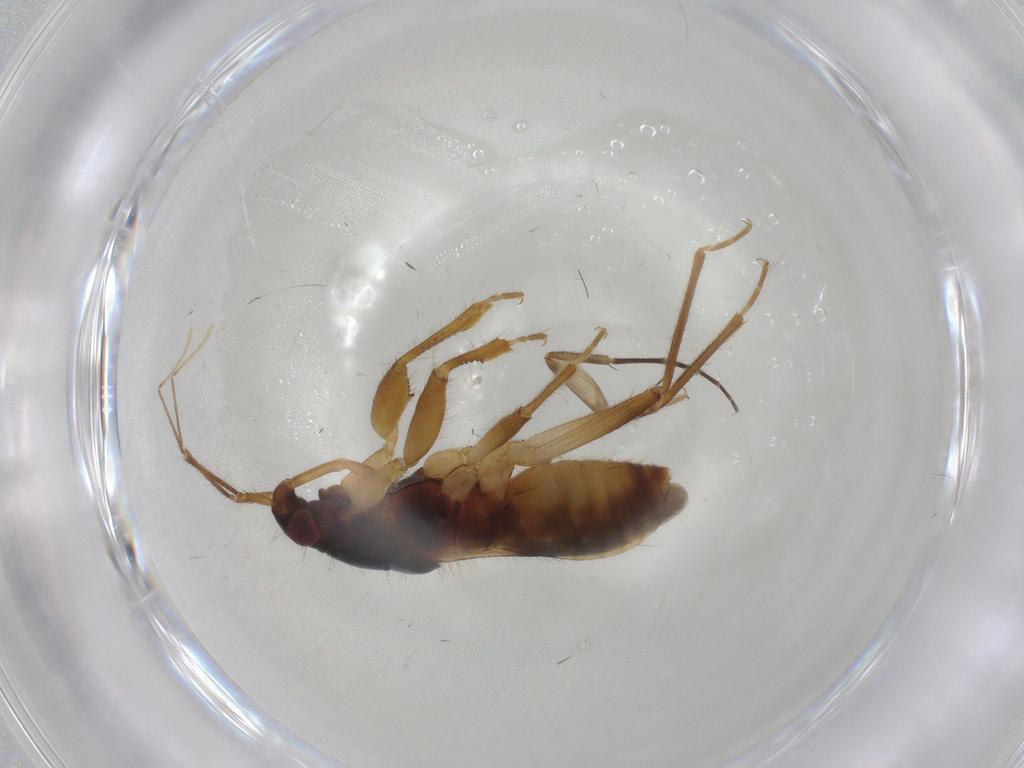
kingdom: Animalia
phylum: Arthropoda
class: Insecta
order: Hemiptera
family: Nabidae
